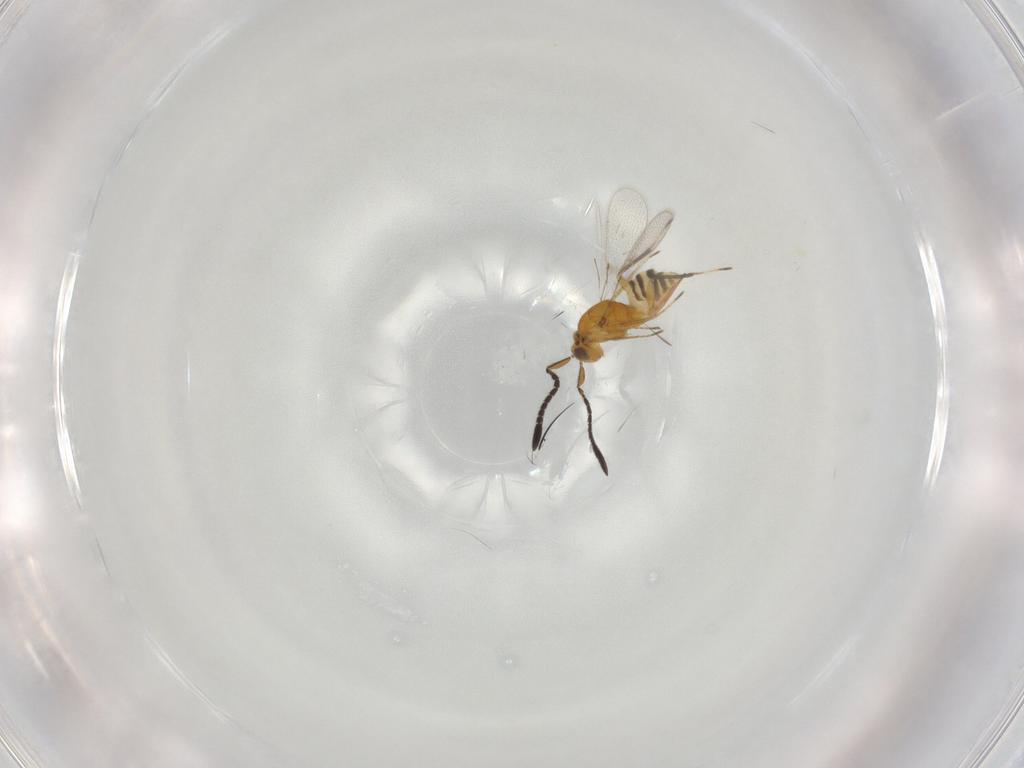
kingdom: Animalia
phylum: Arthropoda
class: Insecta
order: Hymenoptera
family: Mymaridae
